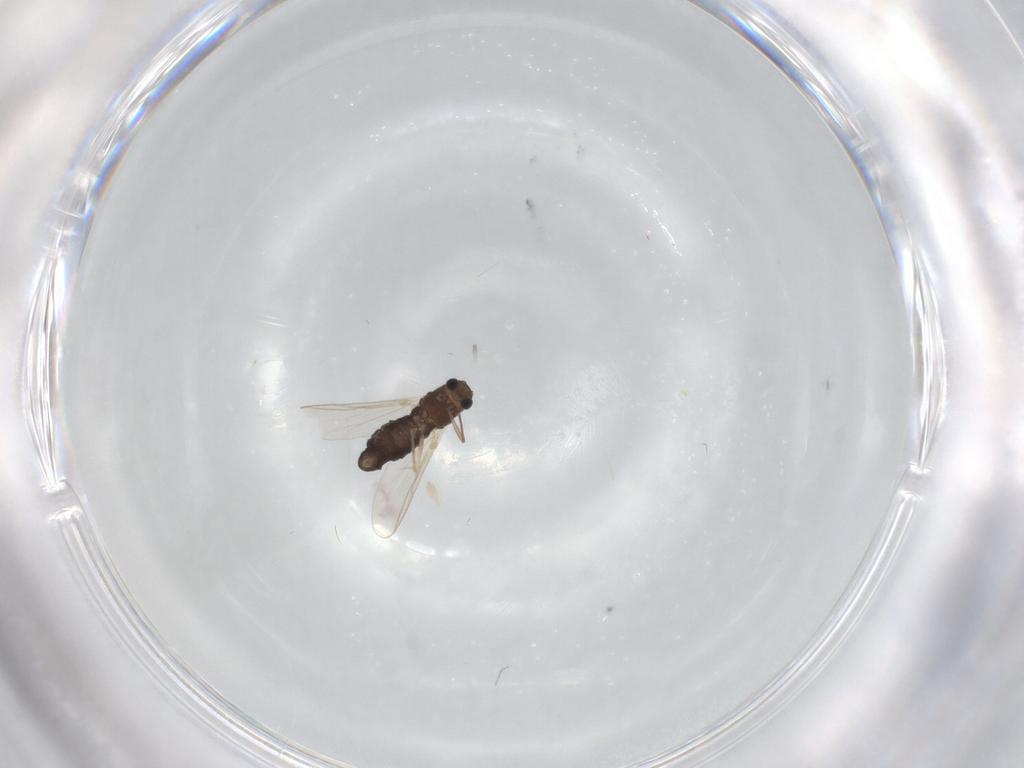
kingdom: Animalia
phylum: Arthropoda
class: Insecta
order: Diptera
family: Chironomidae
